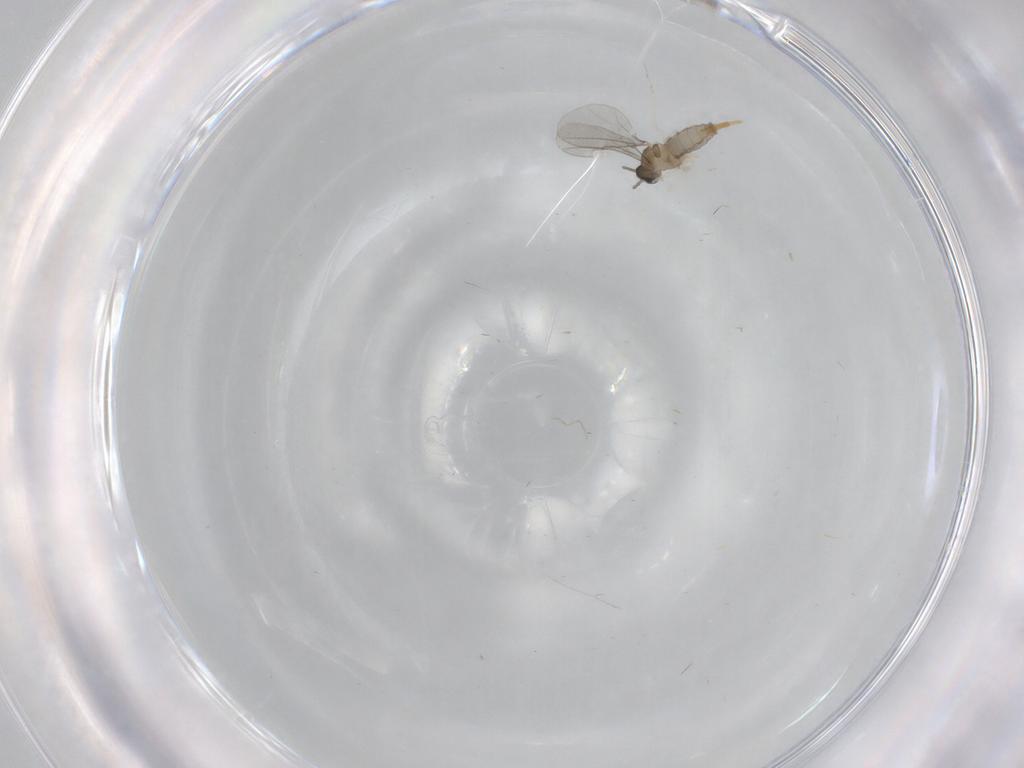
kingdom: Animalia
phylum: Arthropoda
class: Insecta
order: Diptera
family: Cecidomyiidae
